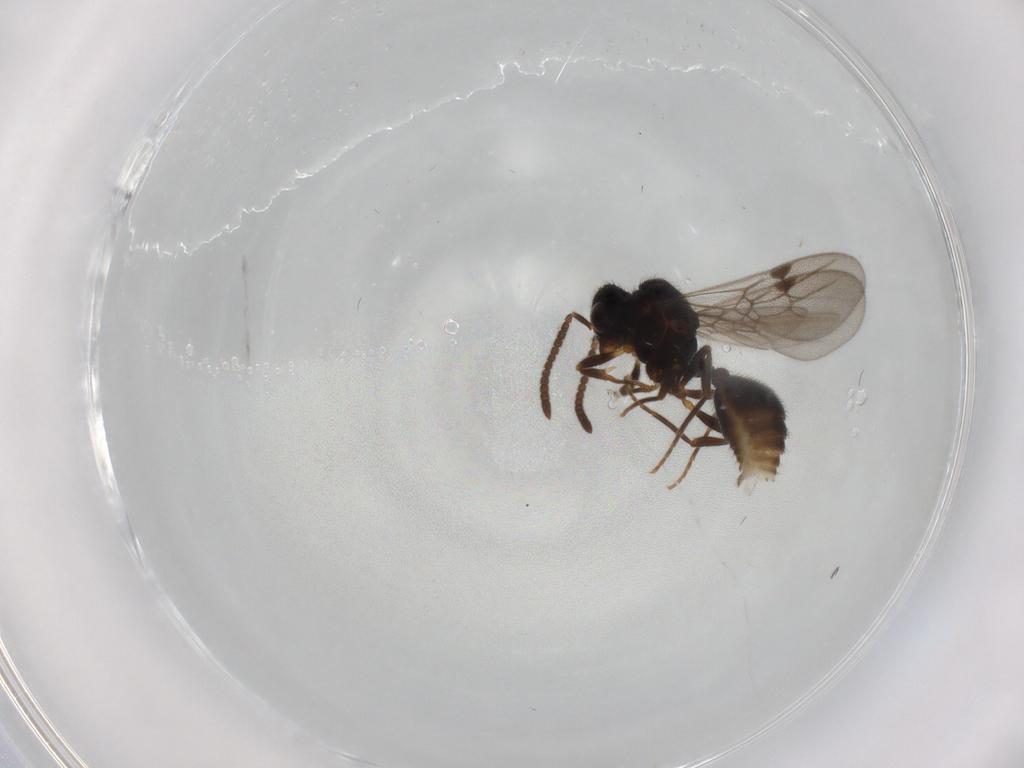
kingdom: Animalia
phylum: Arthropoda
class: Insecta
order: Hymenoptera
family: Formicidae
